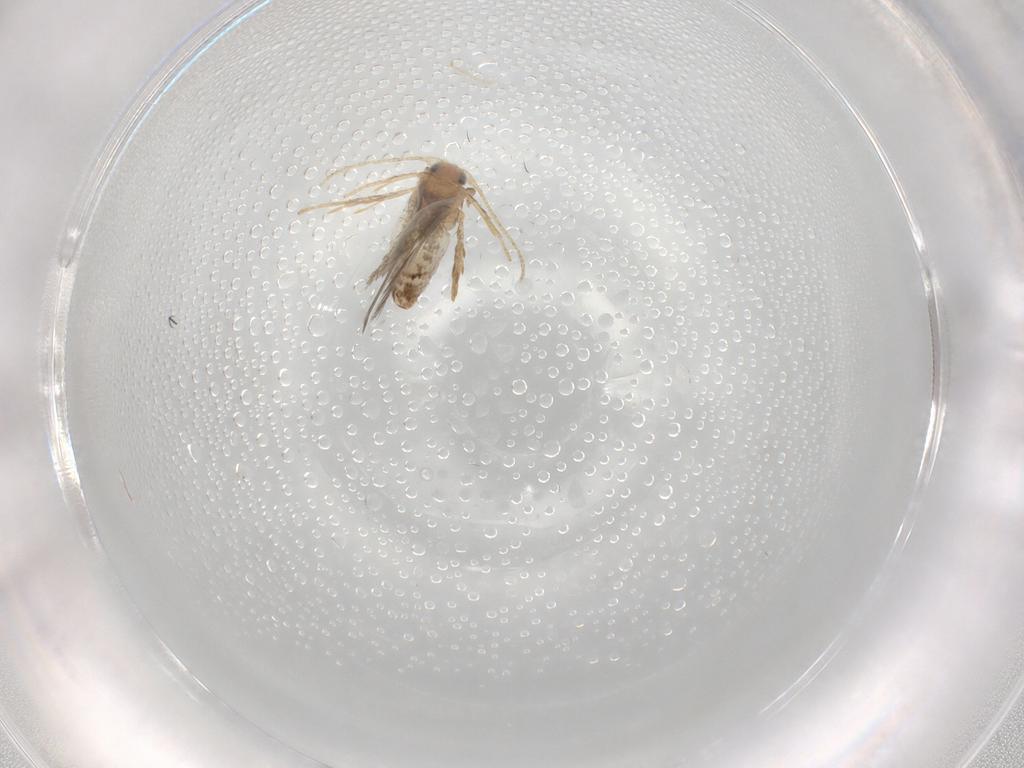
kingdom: Animalia
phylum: Arthropoda
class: Insecta
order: Lepidoptera
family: Nepticulidae
